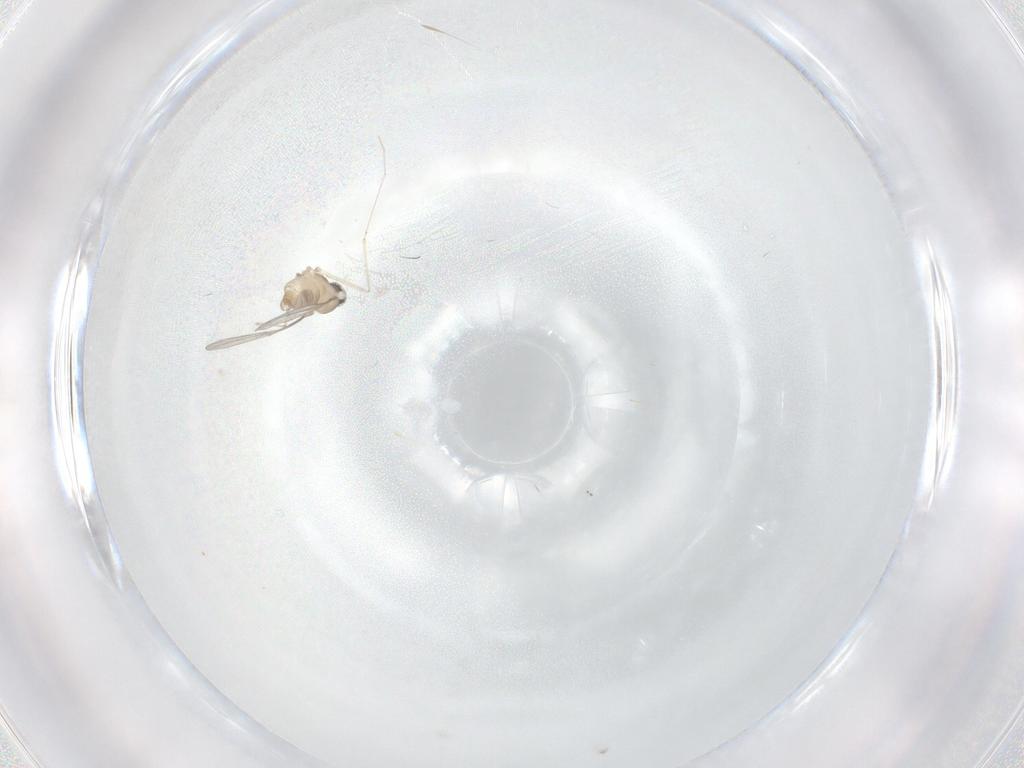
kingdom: Animalia
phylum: Arthropoda
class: Insecta
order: Diptera
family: Cecidomyiidae
